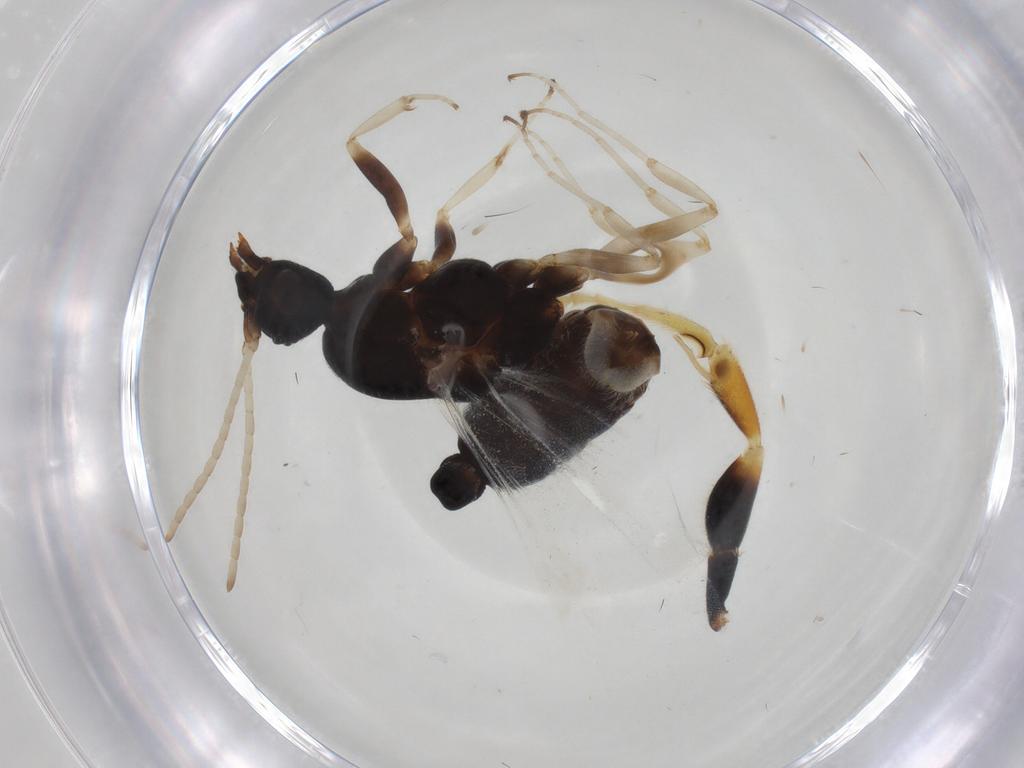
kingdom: Animalia
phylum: Arthropoda
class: Insecta
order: Hymenoptera
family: Formicidae
